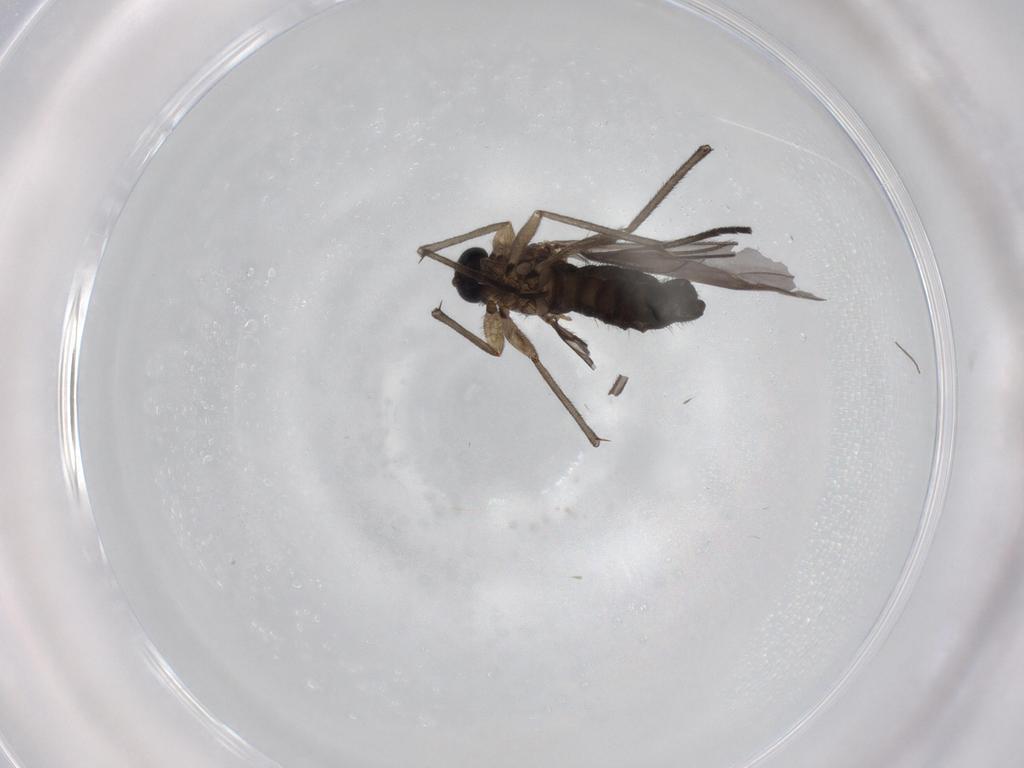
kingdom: Animalia
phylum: Arthropoda
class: Insecta
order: Diptera
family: Sciaridae
